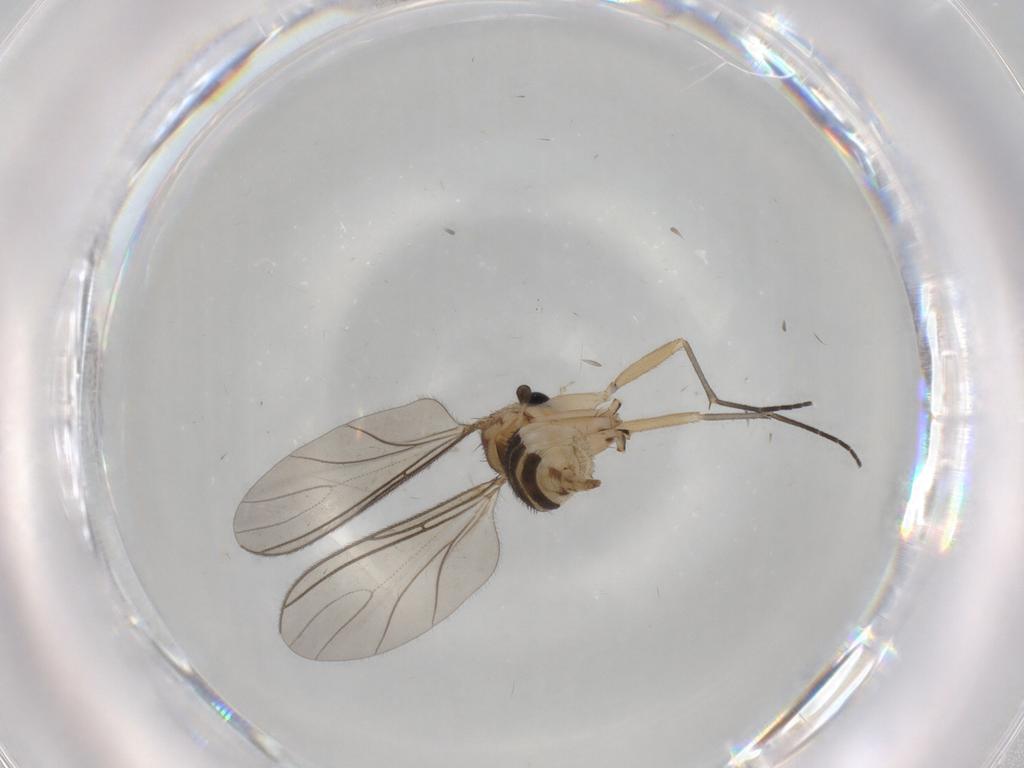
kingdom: Animalia
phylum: Arthropoda
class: Insecta
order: Diptera
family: Sciaridae
